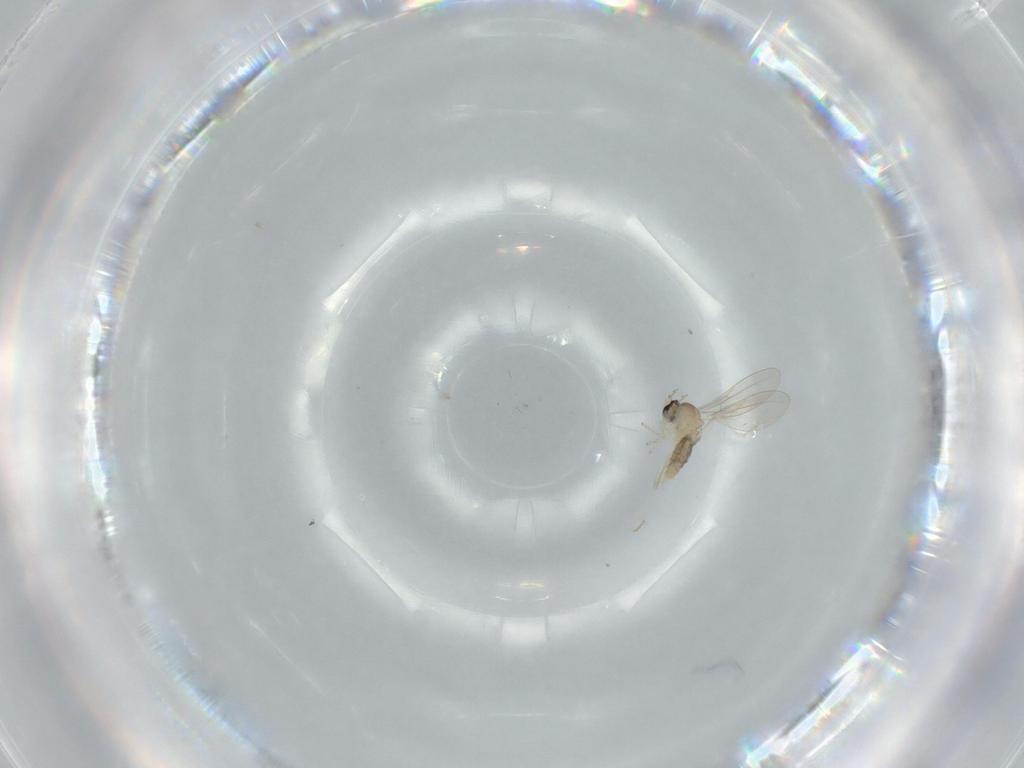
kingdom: Animalia
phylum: Arthropoda
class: Insecta
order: Diptera
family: Cecidomyiidae
